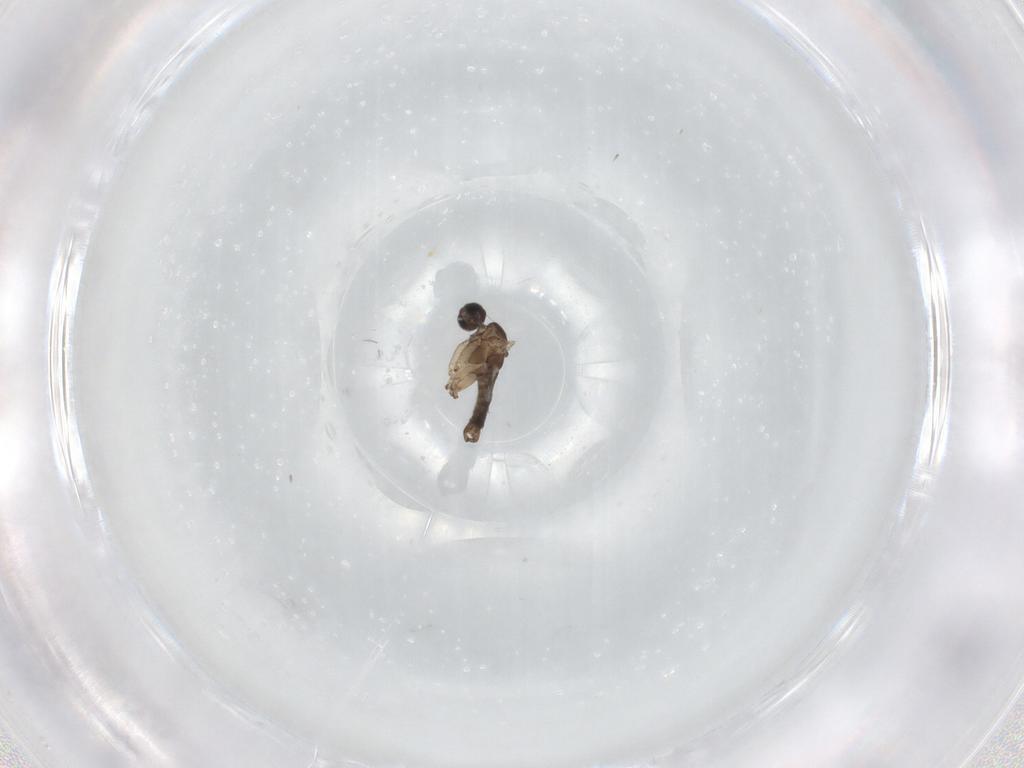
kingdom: Animalia
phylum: Arthropoda
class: Insecta
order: Diptera
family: Sciaridae
